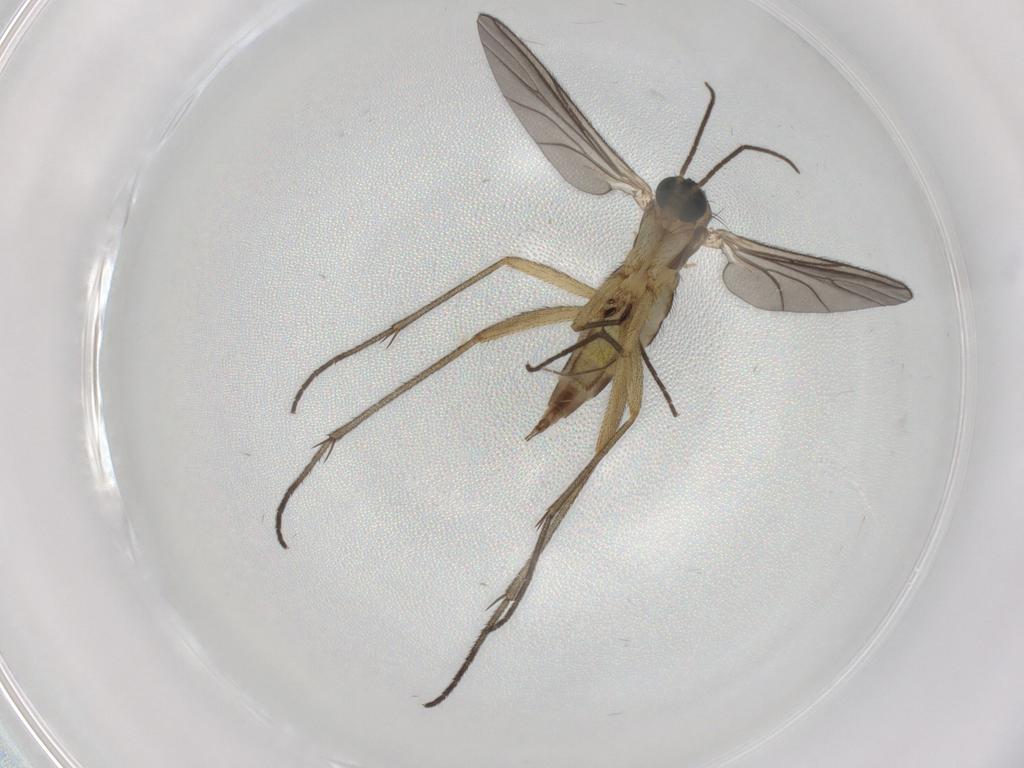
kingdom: Animalia
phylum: Arthropoda
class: Insecta
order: Diptera
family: Sciaridae
